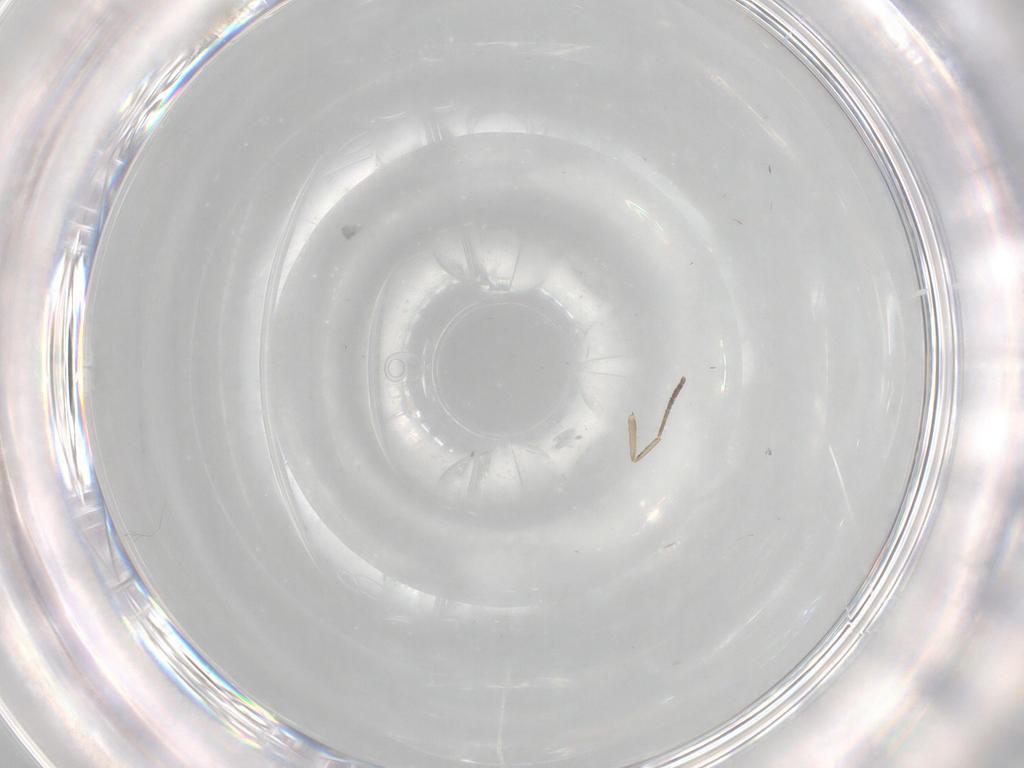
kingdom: Animalia
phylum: Arthropoda
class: Insecta
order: Diptera
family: Cecidomyiidae
